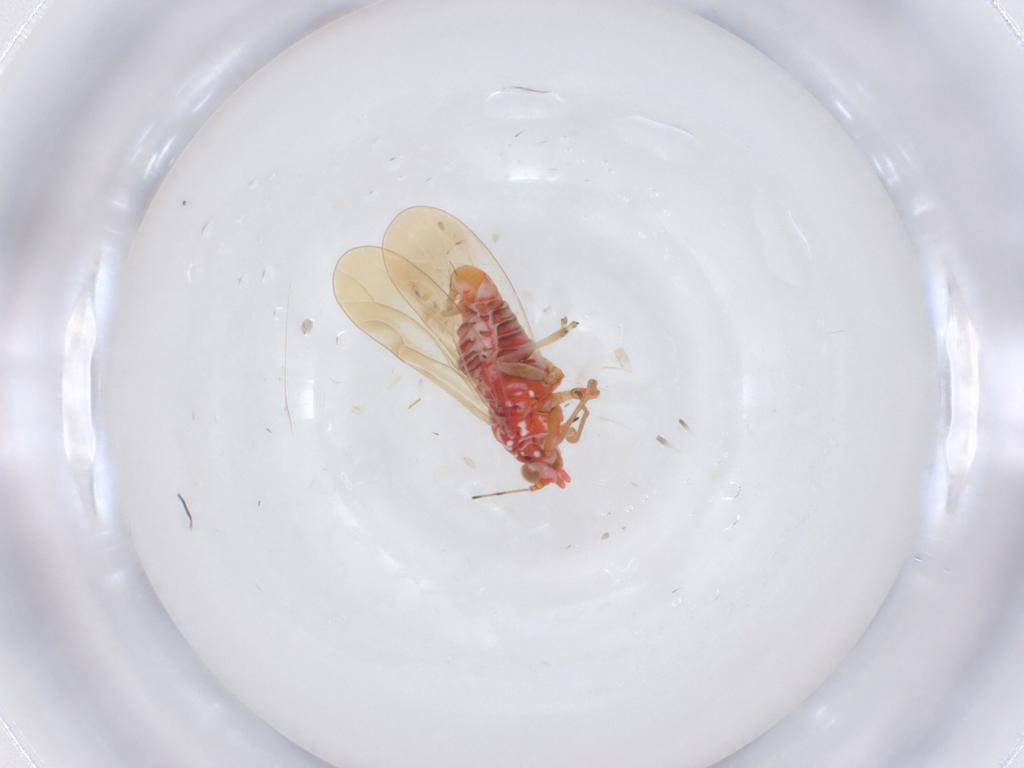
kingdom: Animalia
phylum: Arthropoda
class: Insecta
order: Hemiptera
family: Psyllidae
